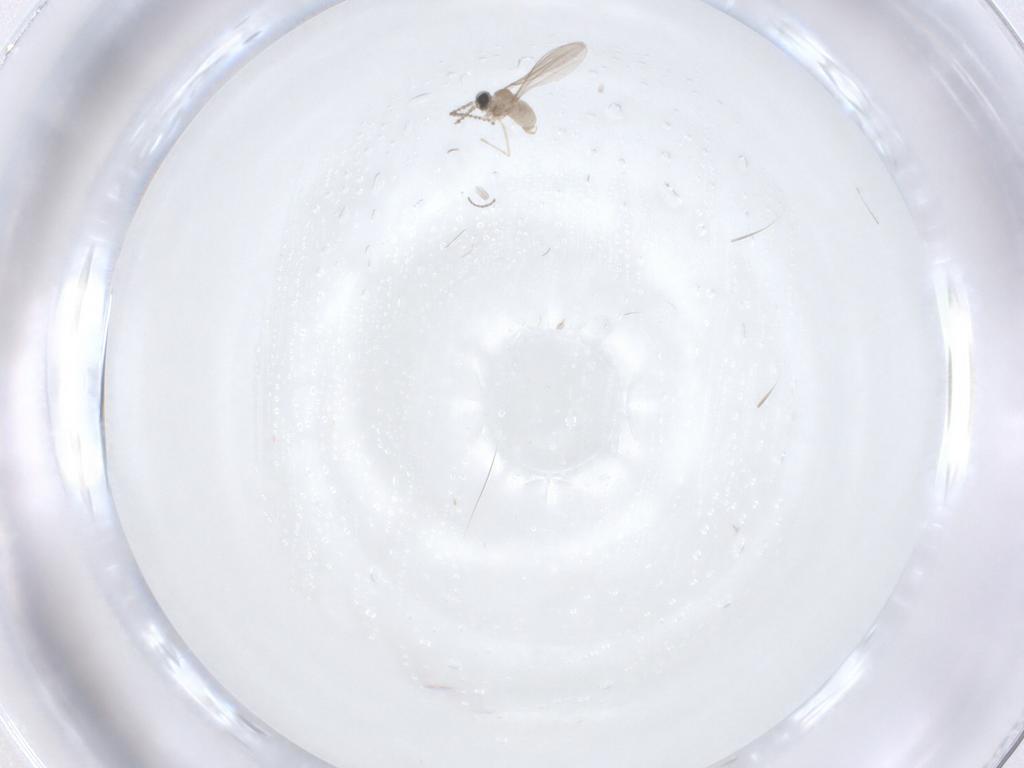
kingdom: Animalia
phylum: Arthropoda
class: Insecta
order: Diptera
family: Cecidomyiidae
